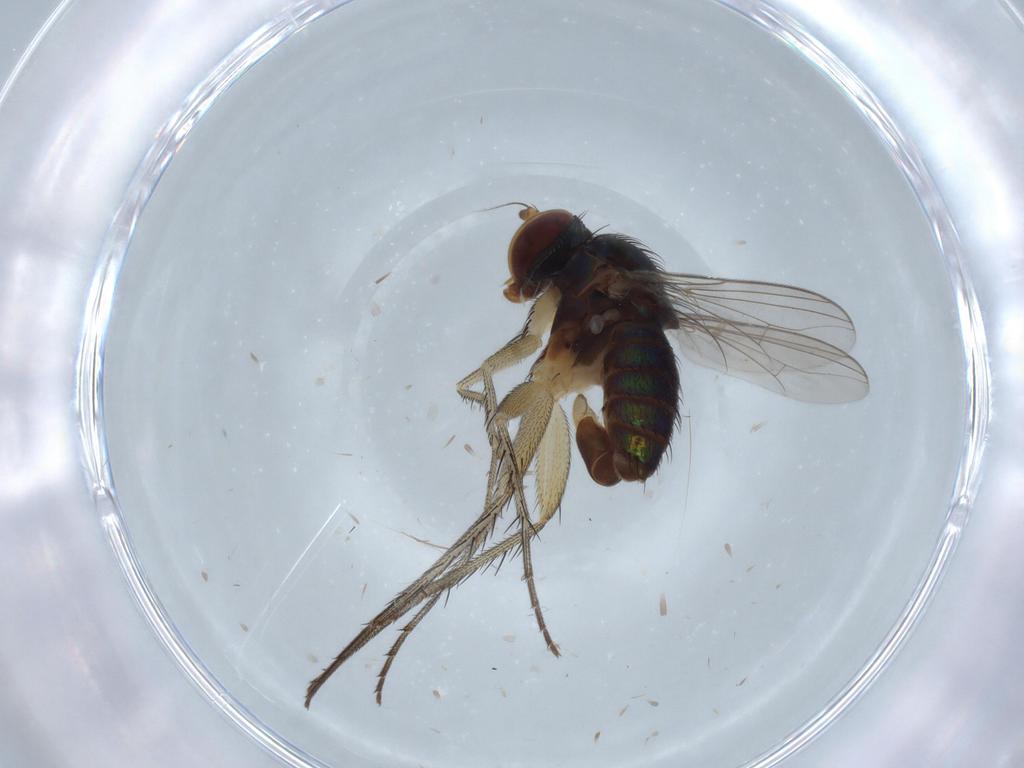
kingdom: Animalia
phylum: Arthropoda
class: Insecta
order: Diptera
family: Dolichopodidae
